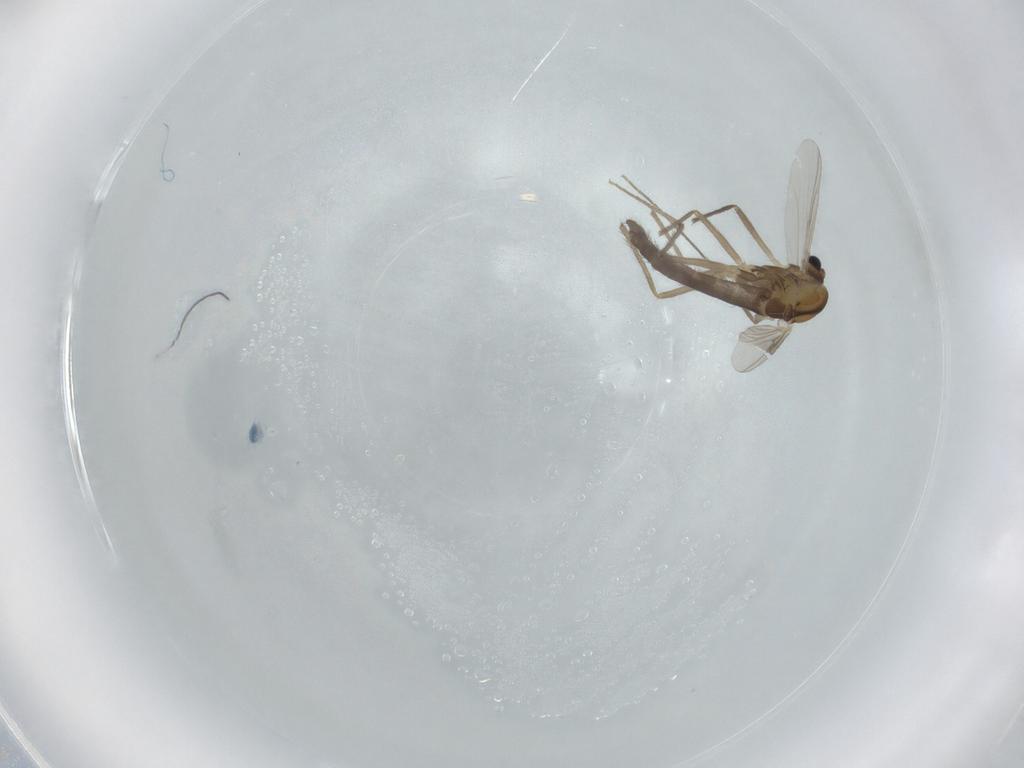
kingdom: Animalia
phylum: Arthropoda
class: Insecta
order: Diptera
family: Chironomidae
